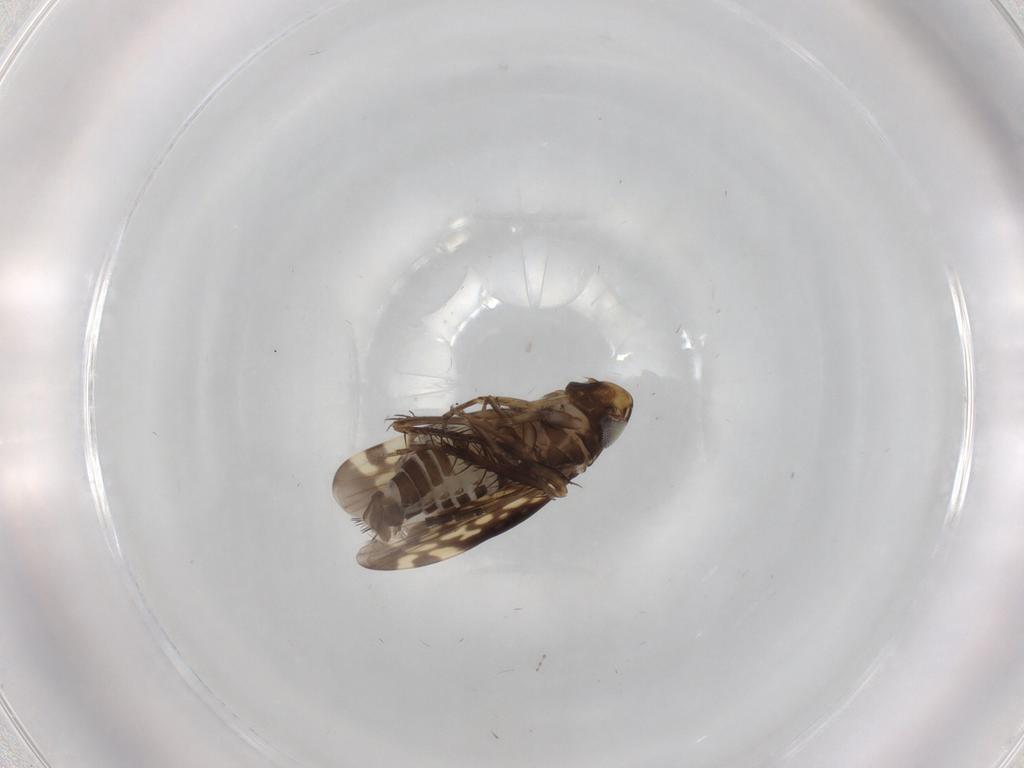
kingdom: Animalia
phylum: Arthropoda
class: Insecta
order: Hemiptera
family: Cicadellidae
